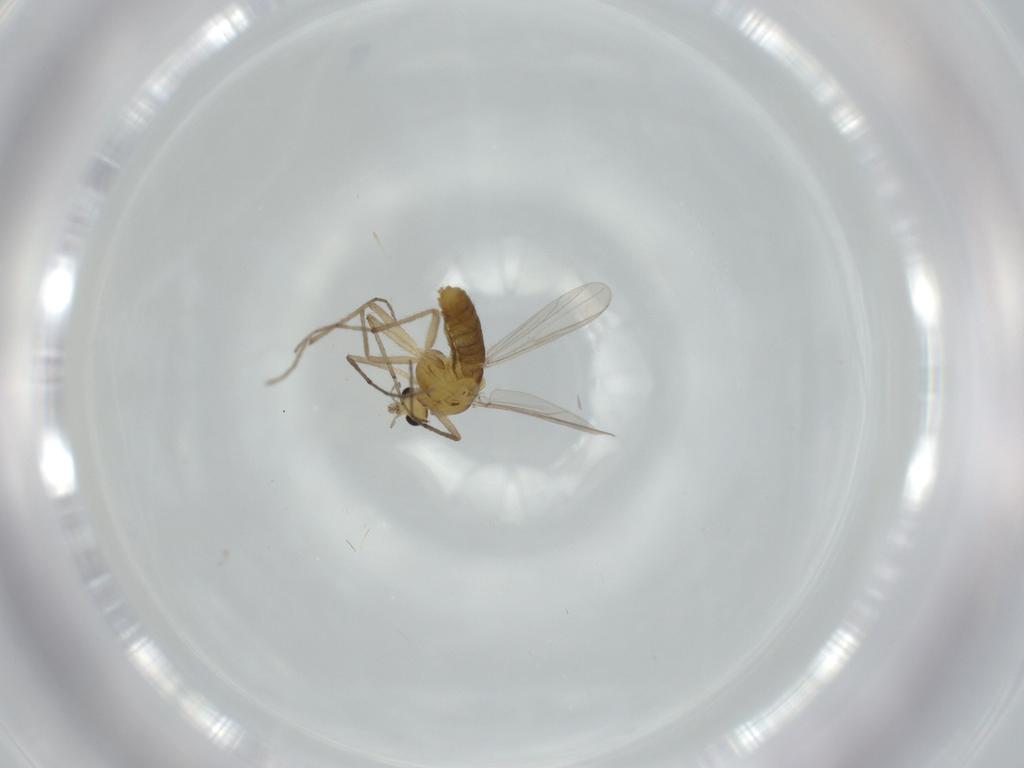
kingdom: Animalia
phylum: Arthropoda
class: Insecta
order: Diptera
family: Chironomidae
